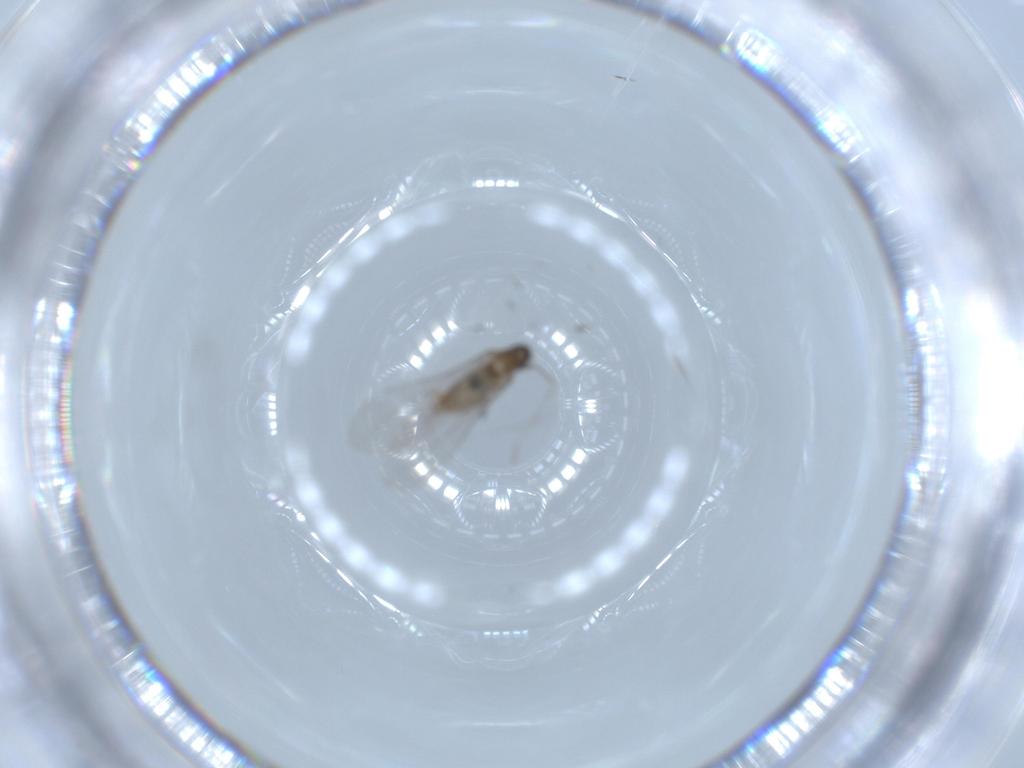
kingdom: Animalia
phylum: Arthropoda
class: Insecta
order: Diptera
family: Cecidomyiidae
